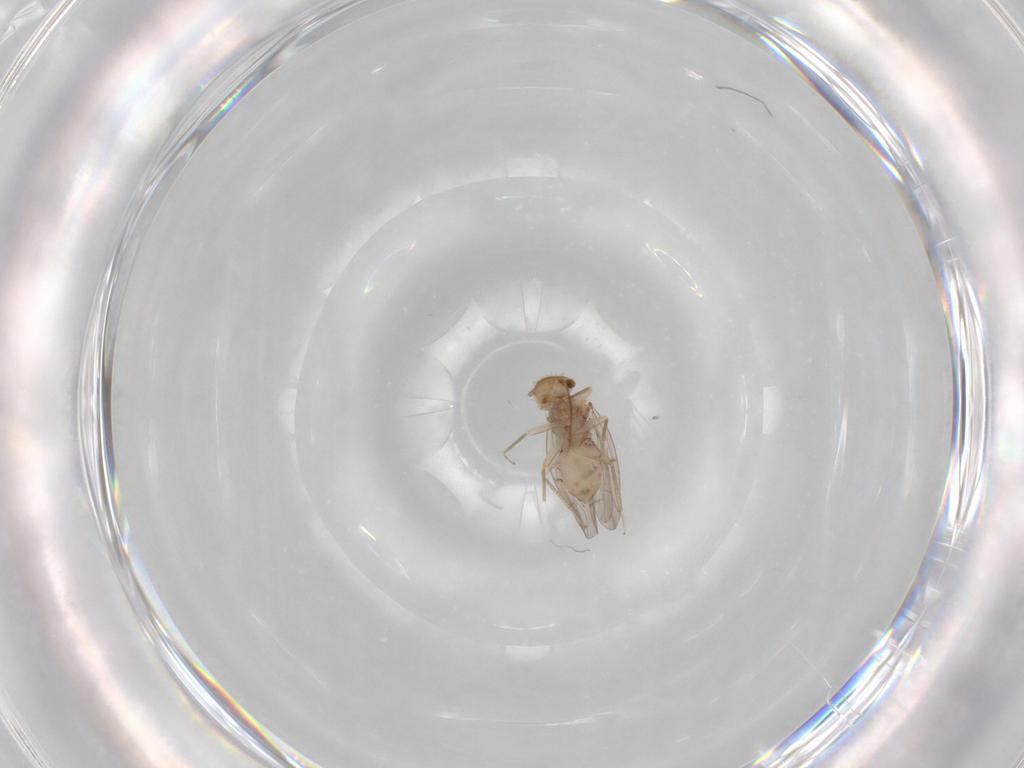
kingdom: Animalia
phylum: Arthropoda
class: Insecta
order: Psocodea
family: Ectopsocidae
